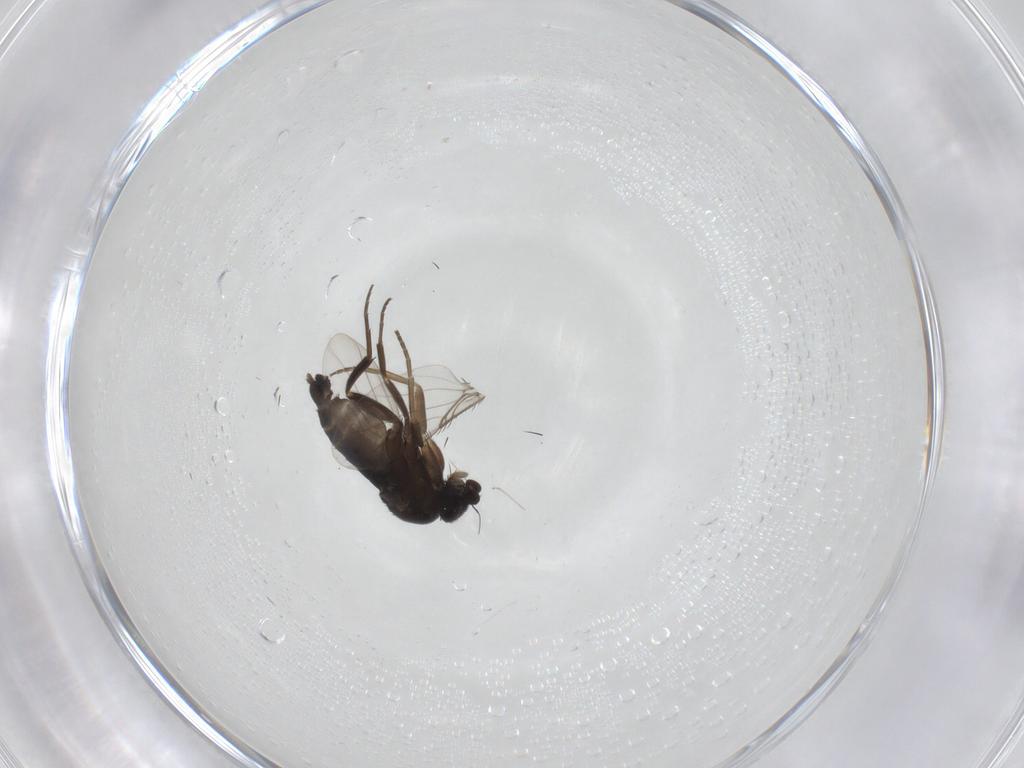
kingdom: Animalia
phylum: Arthropoda
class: Insecta
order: Diptera
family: Cecidomyiidae
